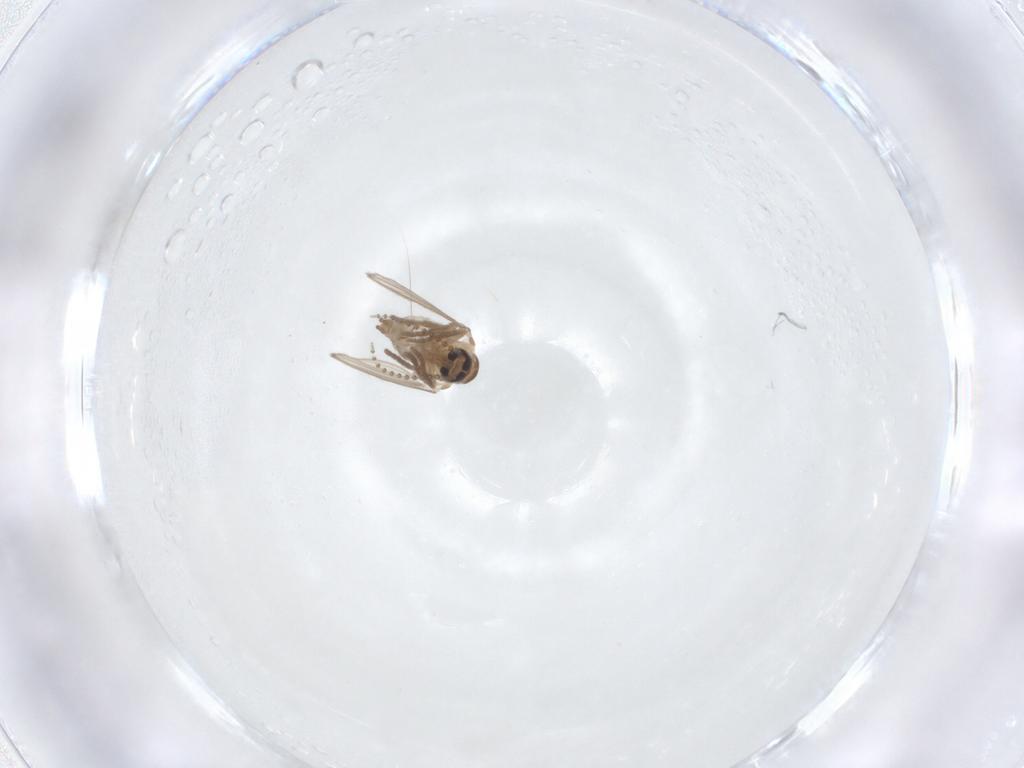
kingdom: Animalia
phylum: Arthropoda
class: Insecta
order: Diptera
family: Psychodidae
